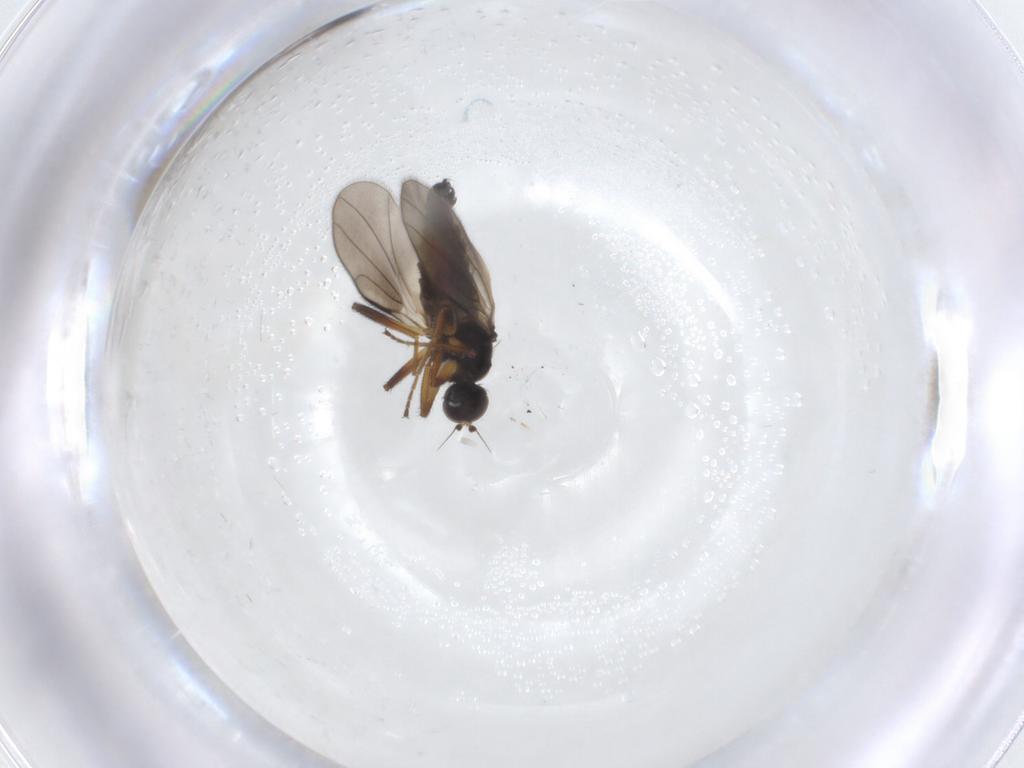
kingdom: Animalia
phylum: Arthropoda
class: Insecta
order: Diptera
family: Hybotidae
